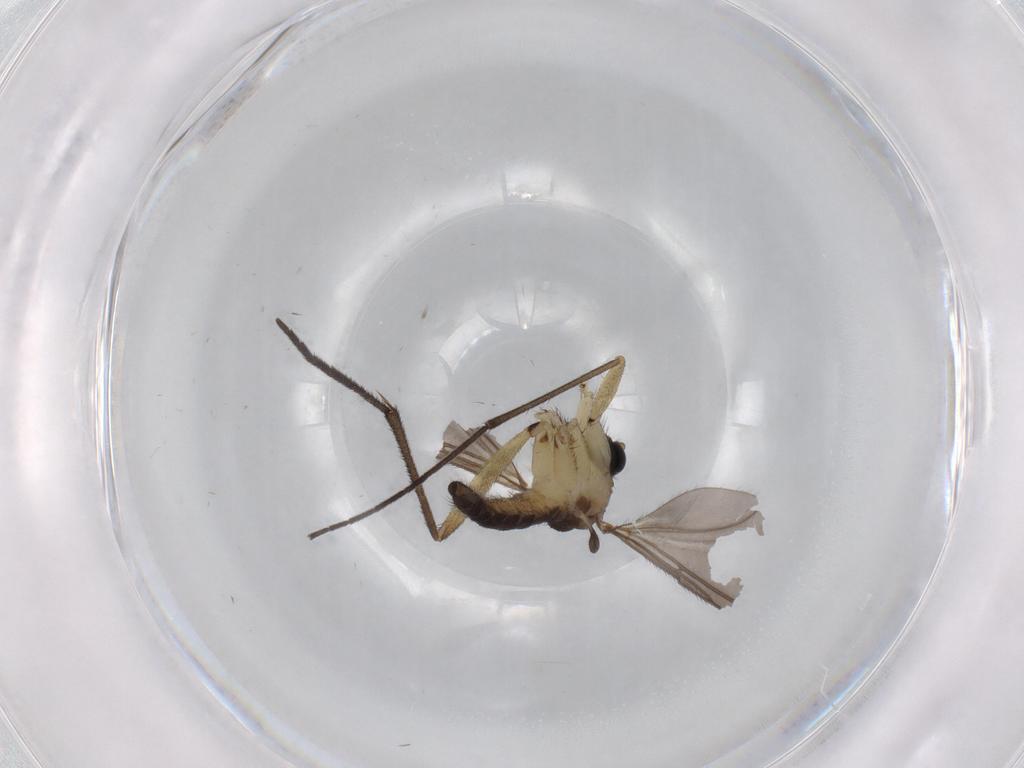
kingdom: Animalia
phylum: Arthropoda
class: Insecta
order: Diptera
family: Sciaridae
